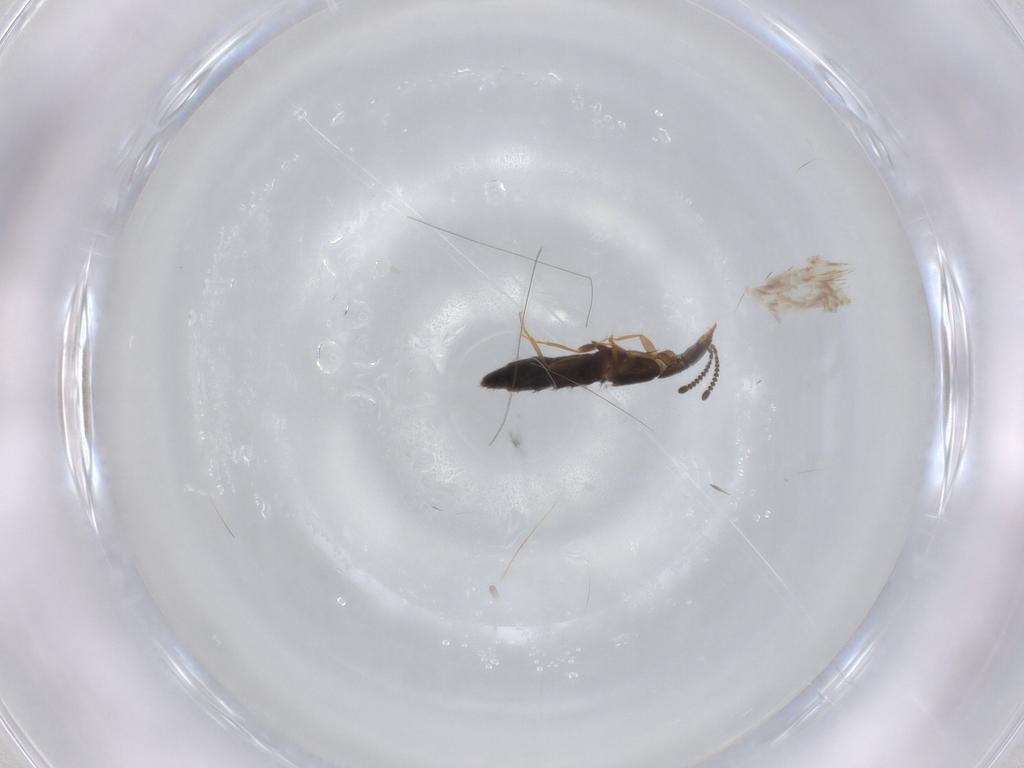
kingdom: Animalia
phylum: Arthropoda
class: Insecta
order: Coleoptera
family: Staphylinidae
